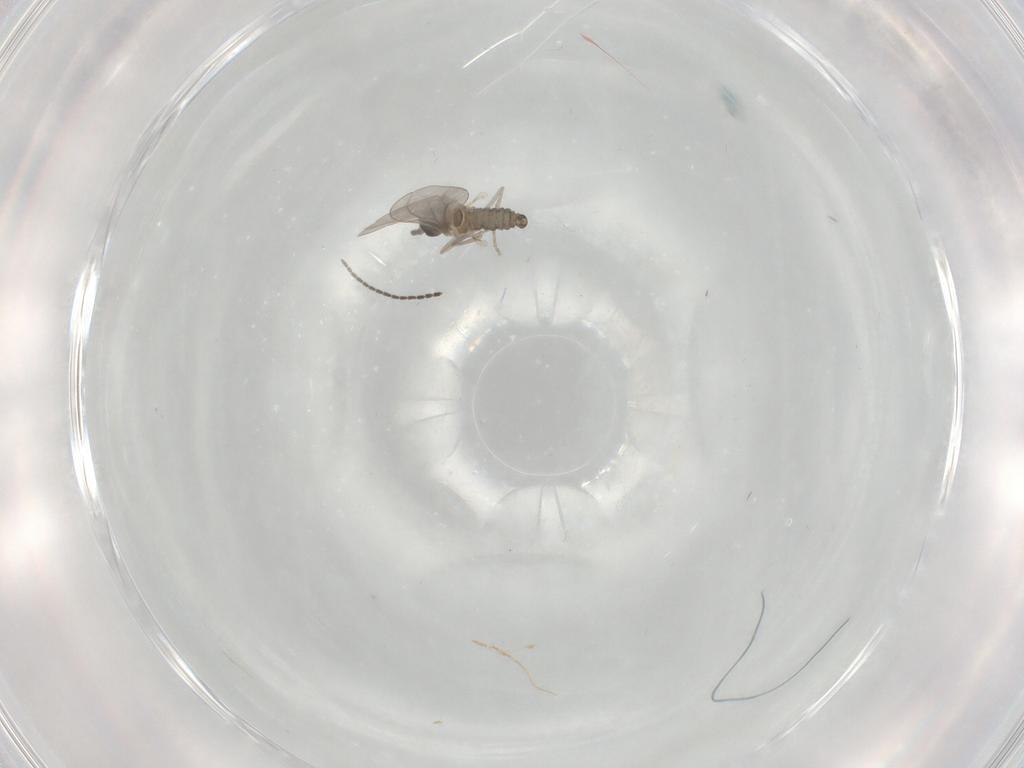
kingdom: Animalia
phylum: Arthropoda
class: Insecta
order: Diptera
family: Cecidomyiidae
